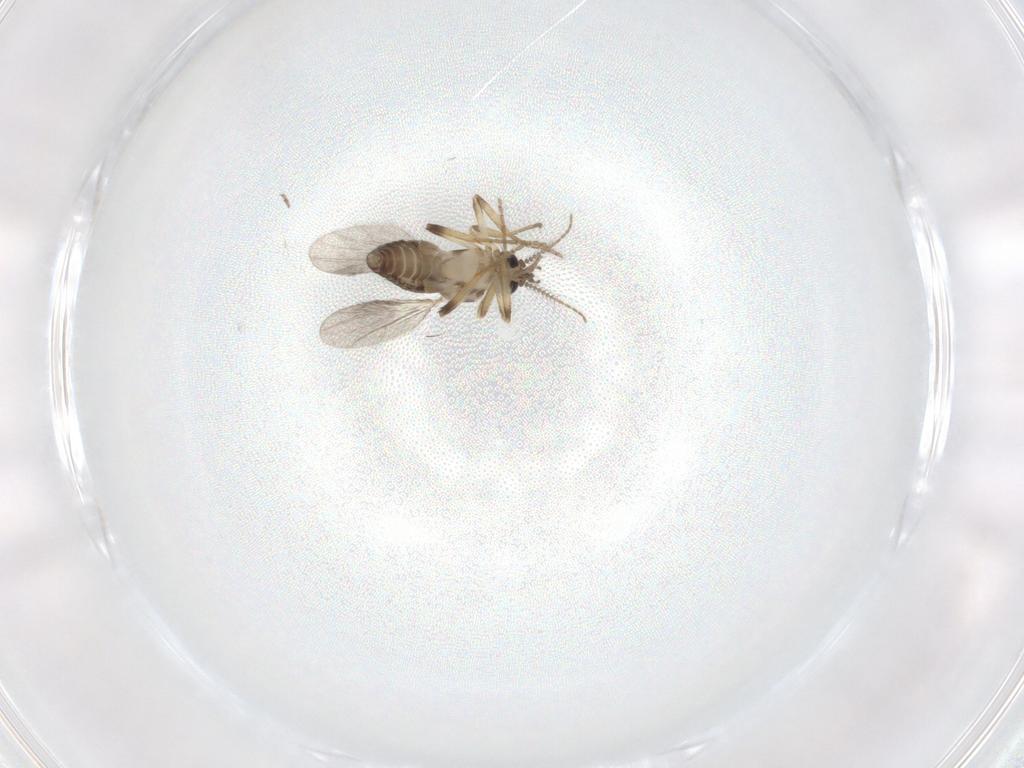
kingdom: Animalia
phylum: Arthropoda
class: Insecta
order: Diptera
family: Ceratopogonidae
